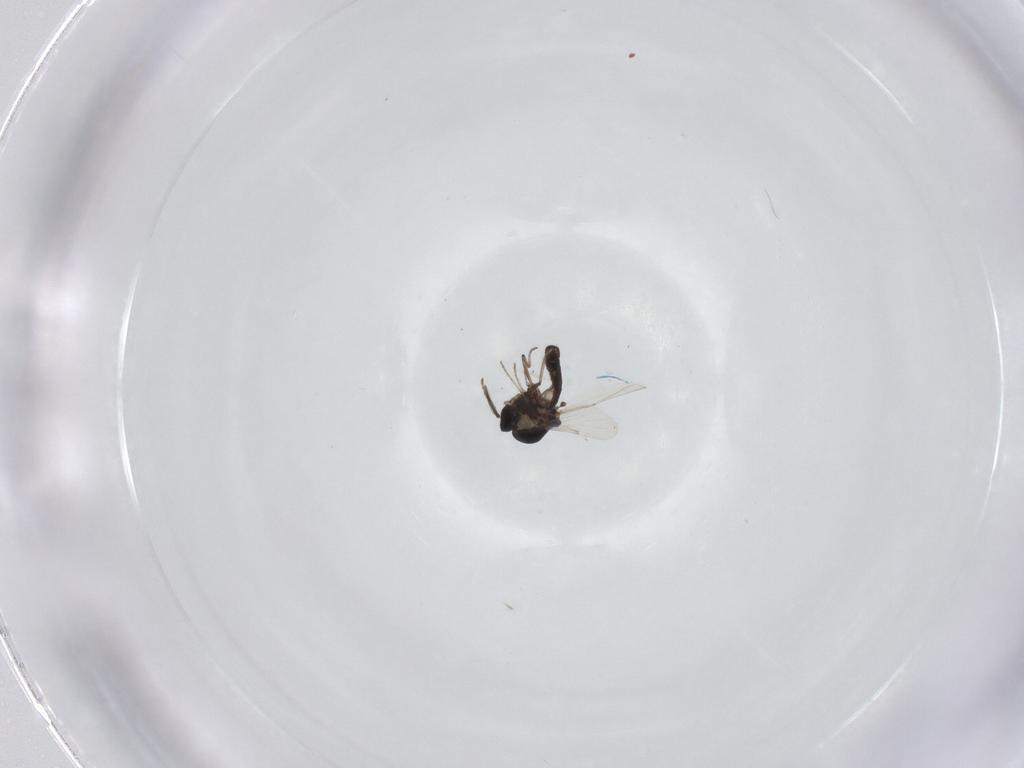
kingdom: Animalia
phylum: Arthropoda
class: Insecta
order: Diptera
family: Ceratopogonidae
